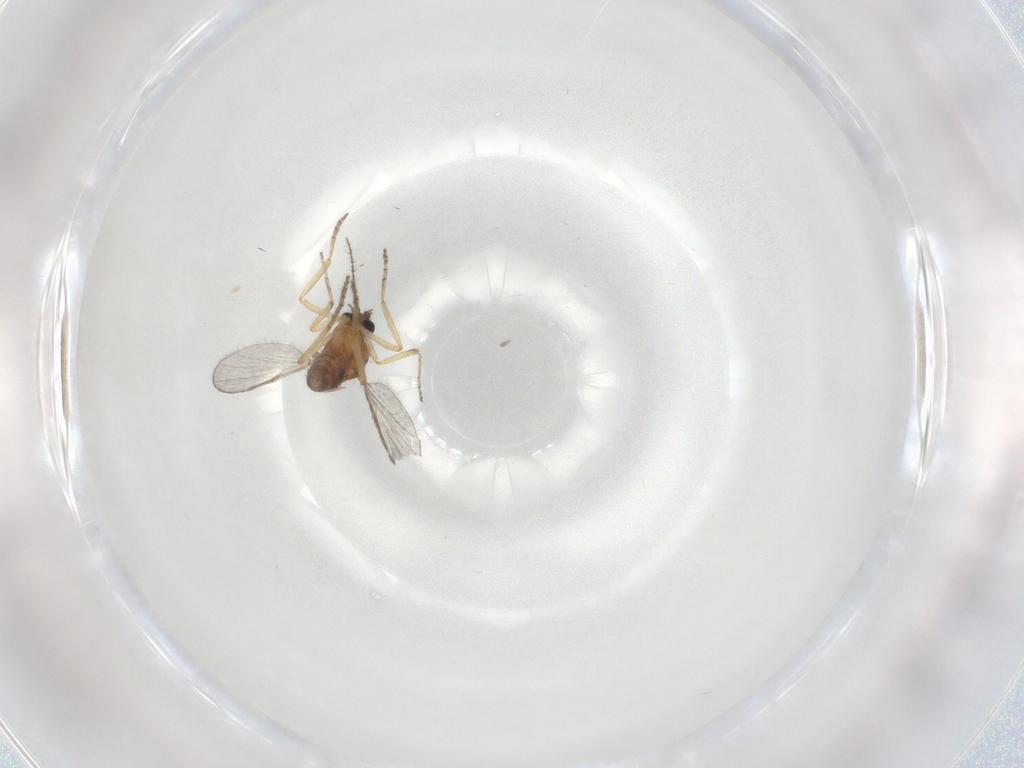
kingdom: Animalia
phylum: Arthropoda
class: Insecta
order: Diptera
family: Ceratopogonidae
